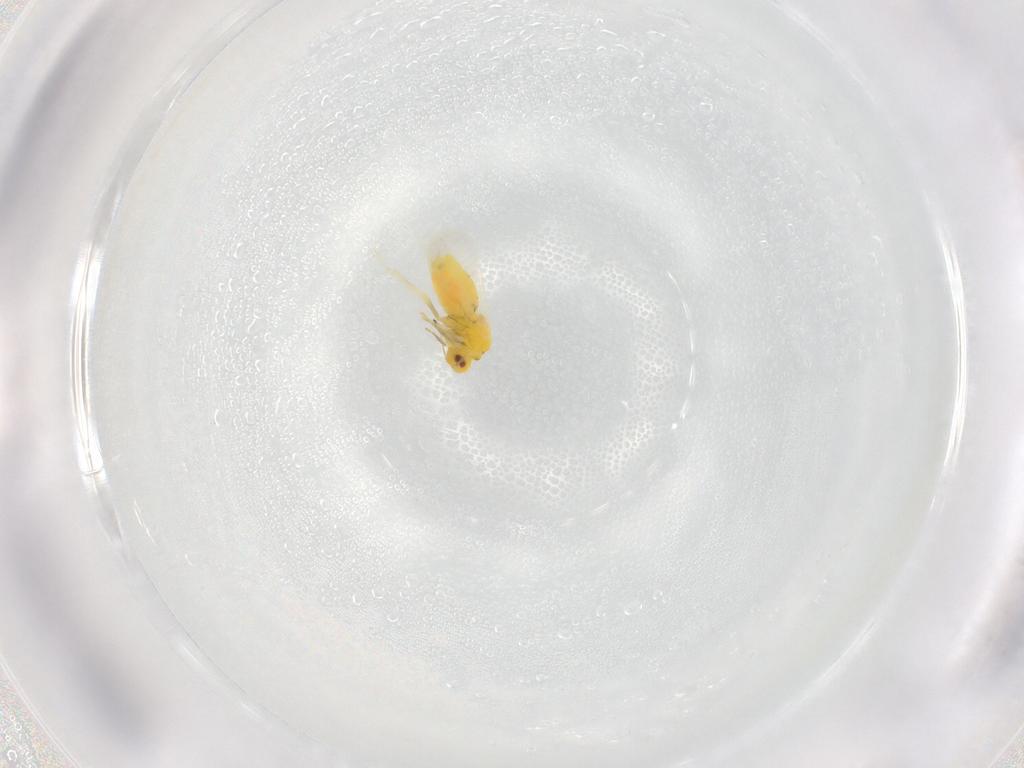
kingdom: Animalia
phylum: Arthropoda
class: Insecta
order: Hemiptera
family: Aleyrodidae
